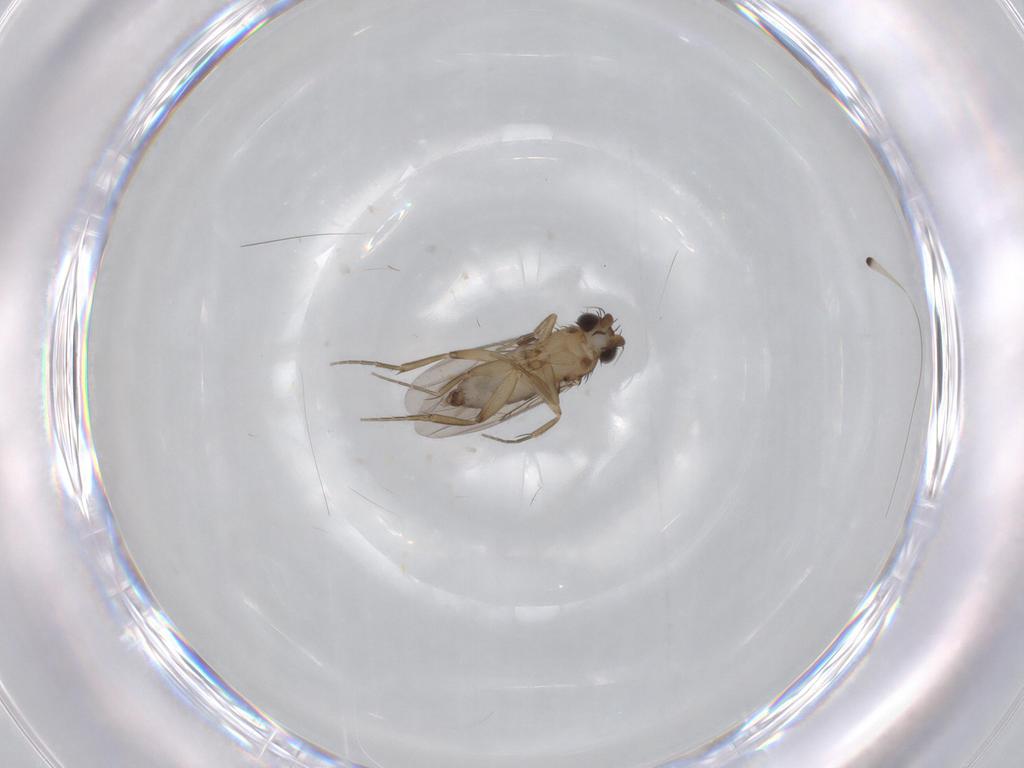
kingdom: Animalia
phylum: Arthropoda
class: Insecta
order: Diptera
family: Phoridae
